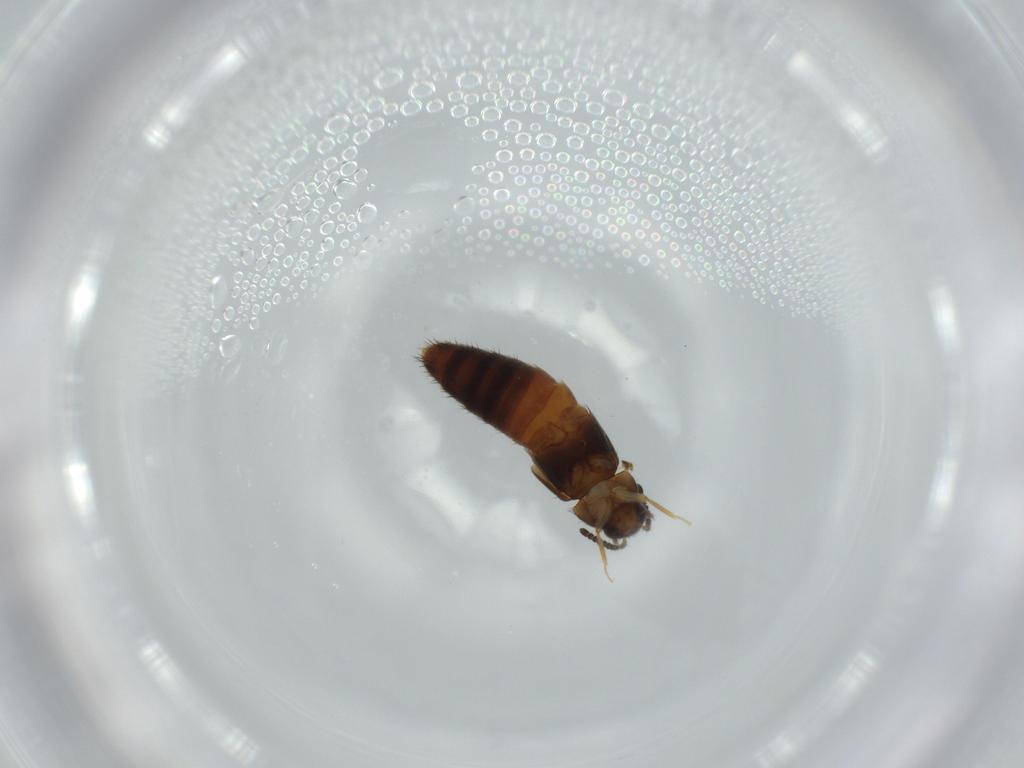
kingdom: Animalia
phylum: Arthropoda
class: Insecta
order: Coleoptera
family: Staphylinidae
